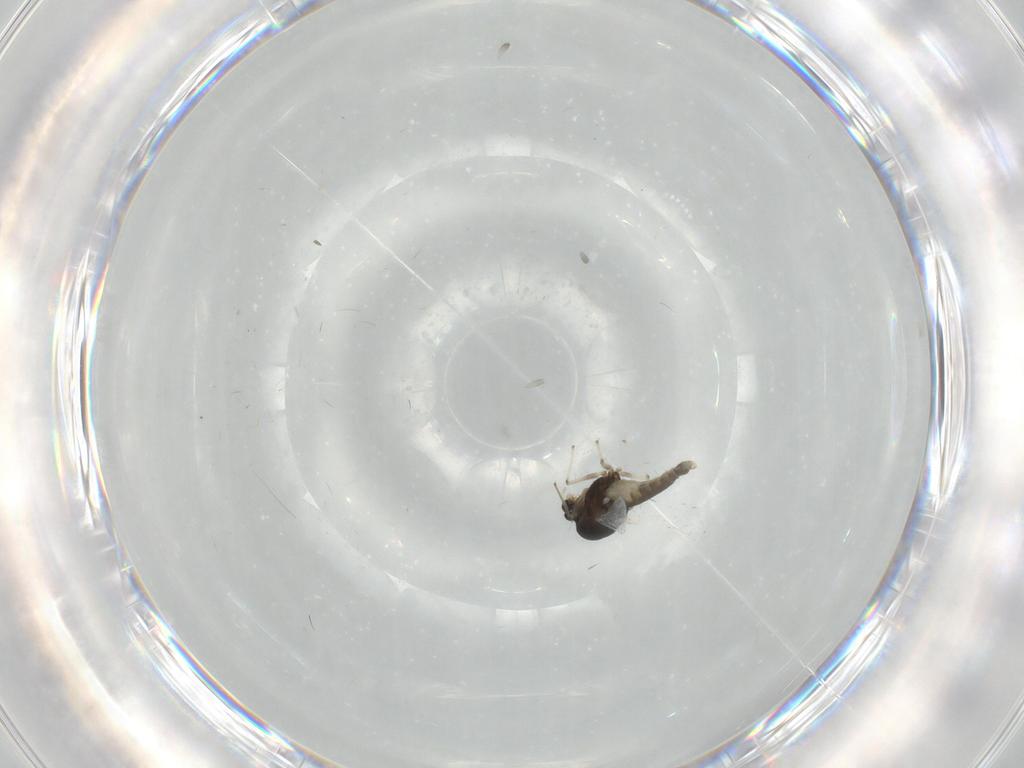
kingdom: Animalia
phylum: Arthropoda
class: Insecta
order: Diptera
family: Chironomidae
